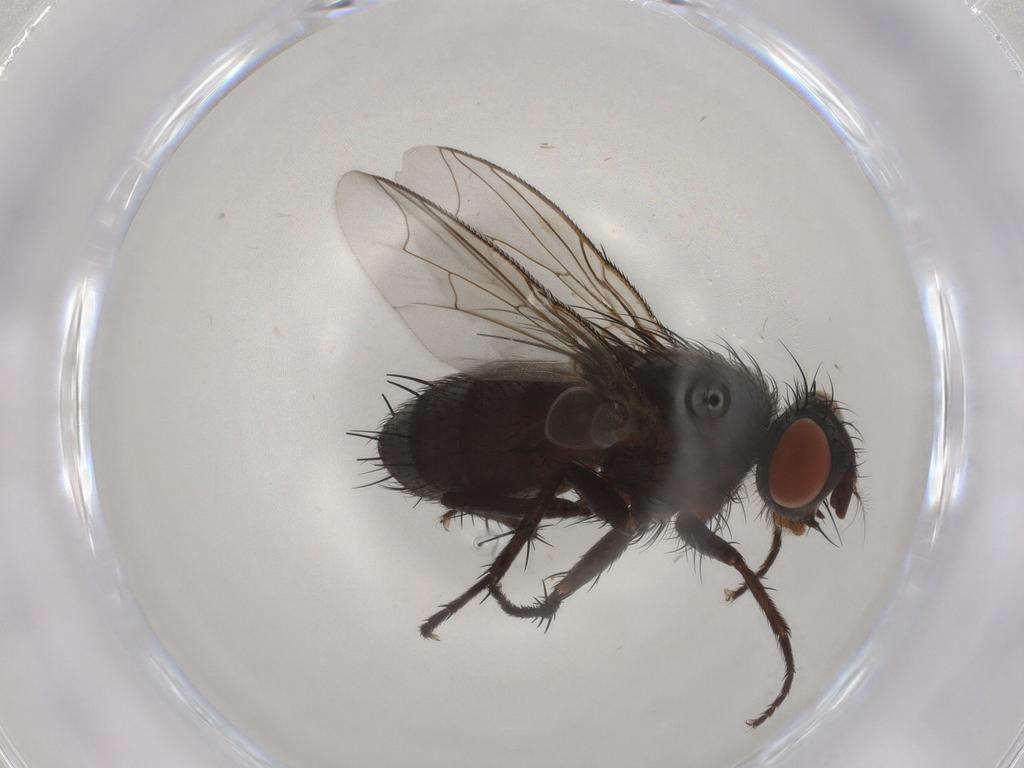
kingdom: Animalia
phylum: Arthropoda
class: Insecta
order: Diptera
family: Sarcophagidae
